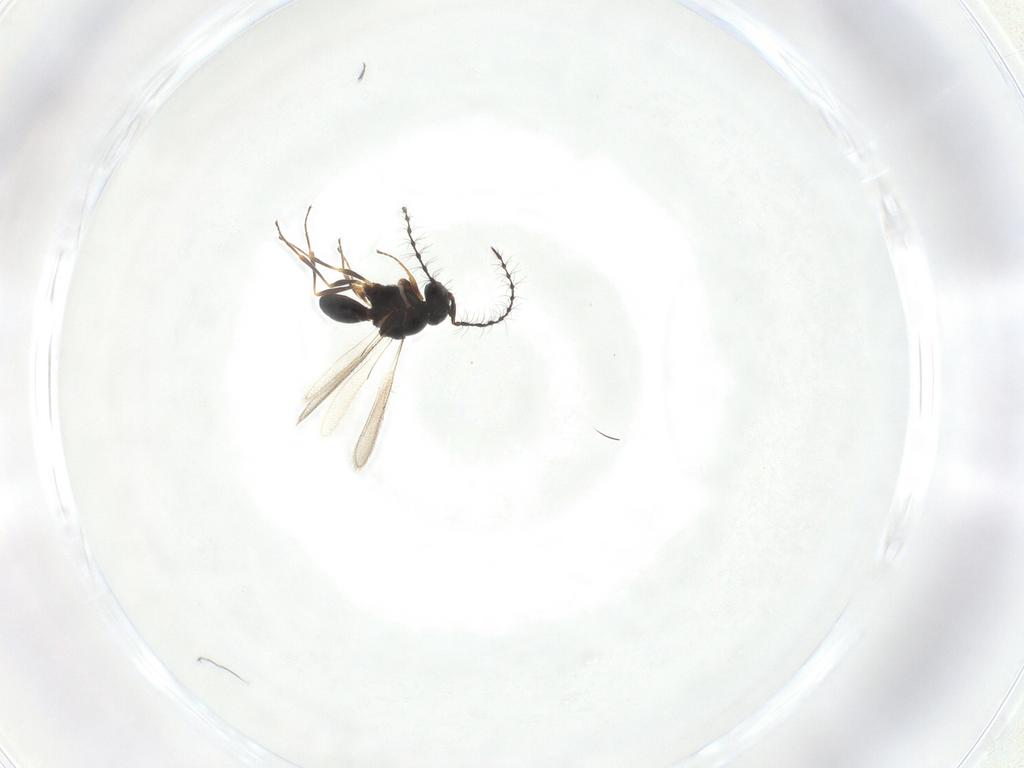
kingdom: Animalia
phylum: Arthropoda
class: Insecta
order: Hymenoptera
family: Scelionidae
